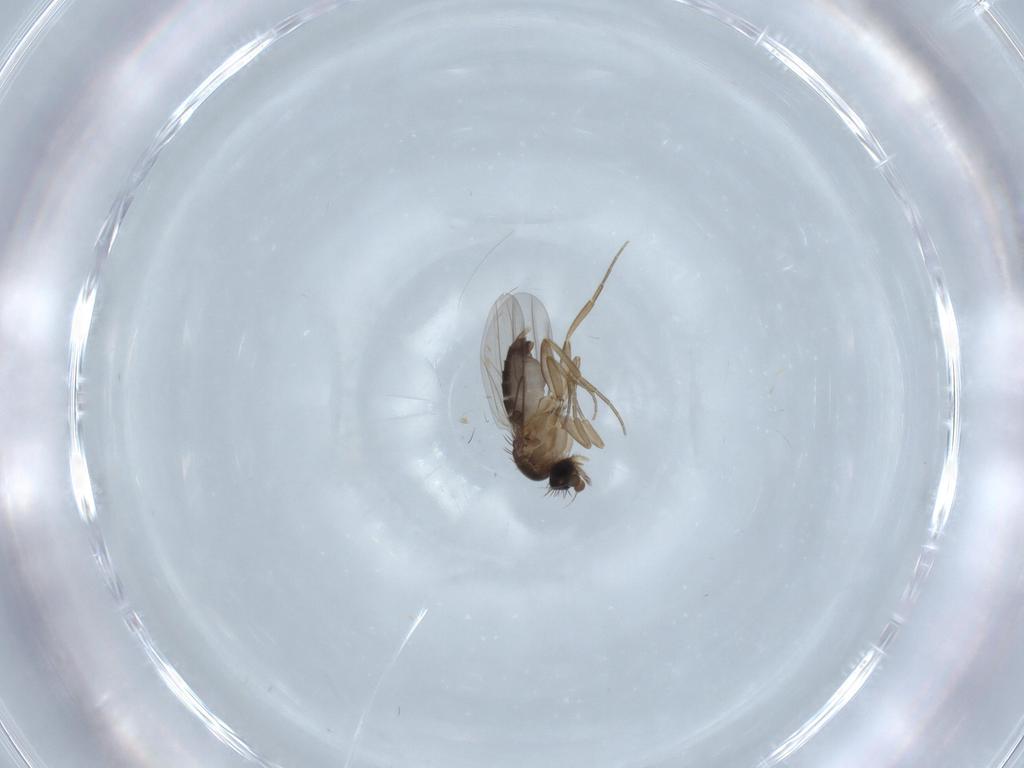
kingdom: Animalia
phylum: Arthropoda
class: Insecta
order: Diptera
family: Phoridae
